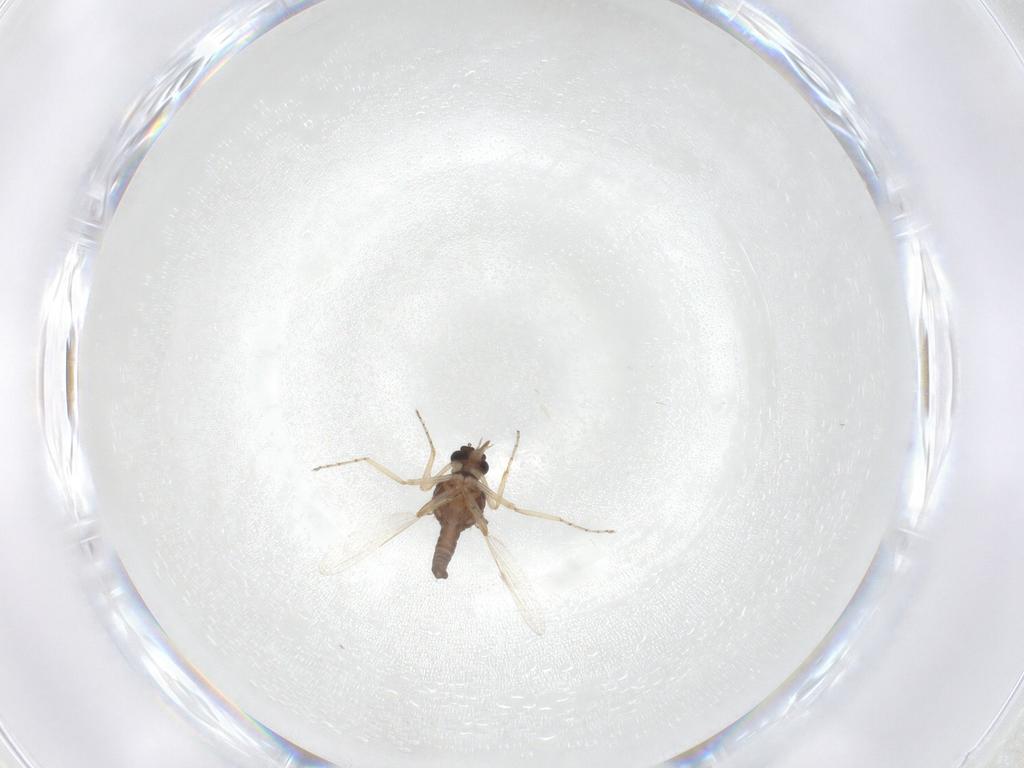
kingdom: Animalia
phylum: Arthropoda
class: Insecta
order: Diptera
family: Ceratopogonidae
